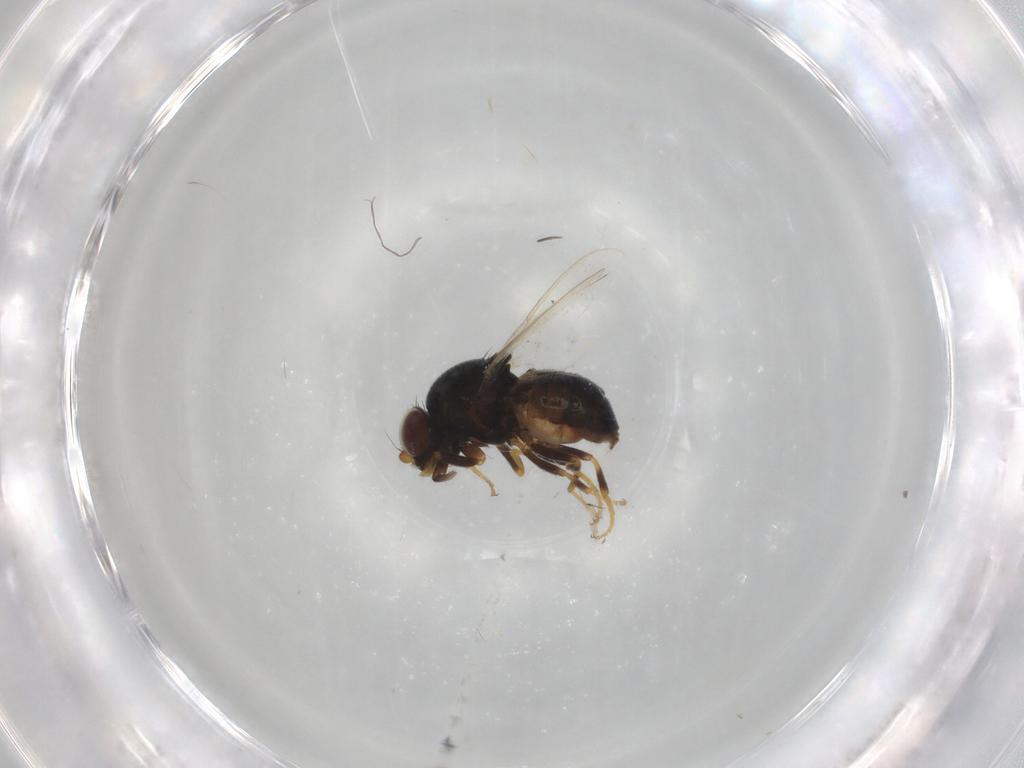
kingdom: Animalia
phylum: Arthropoda
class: Insecta
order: Diptera
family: Chloropidae
